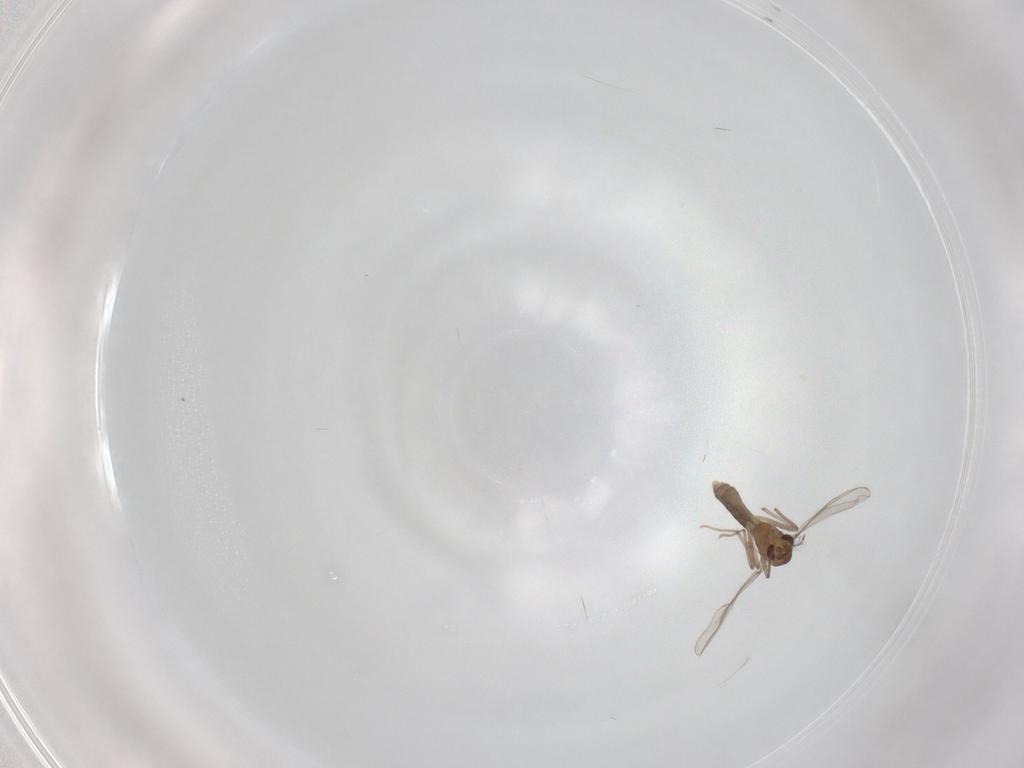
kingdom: Animalia
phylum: Arthropoda
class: Insecta
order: Diptera
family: Chironomidae
